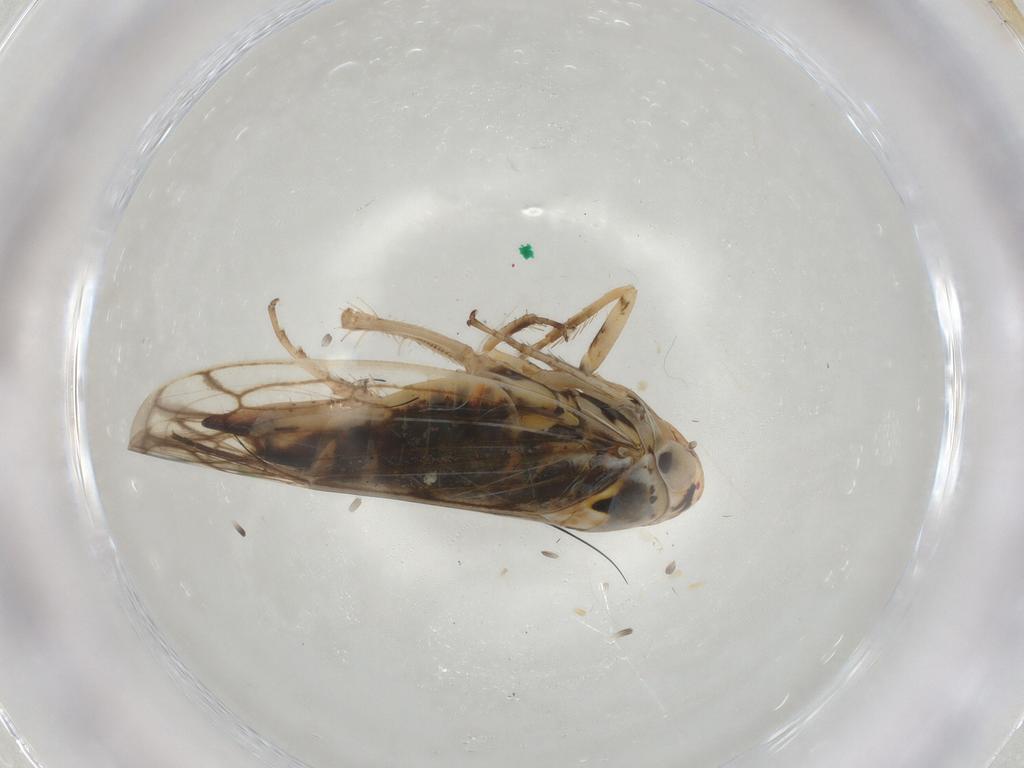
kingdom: Animalia
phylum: Arthropoda
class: Insecta
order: Hemiptera
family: Cicadellidae
